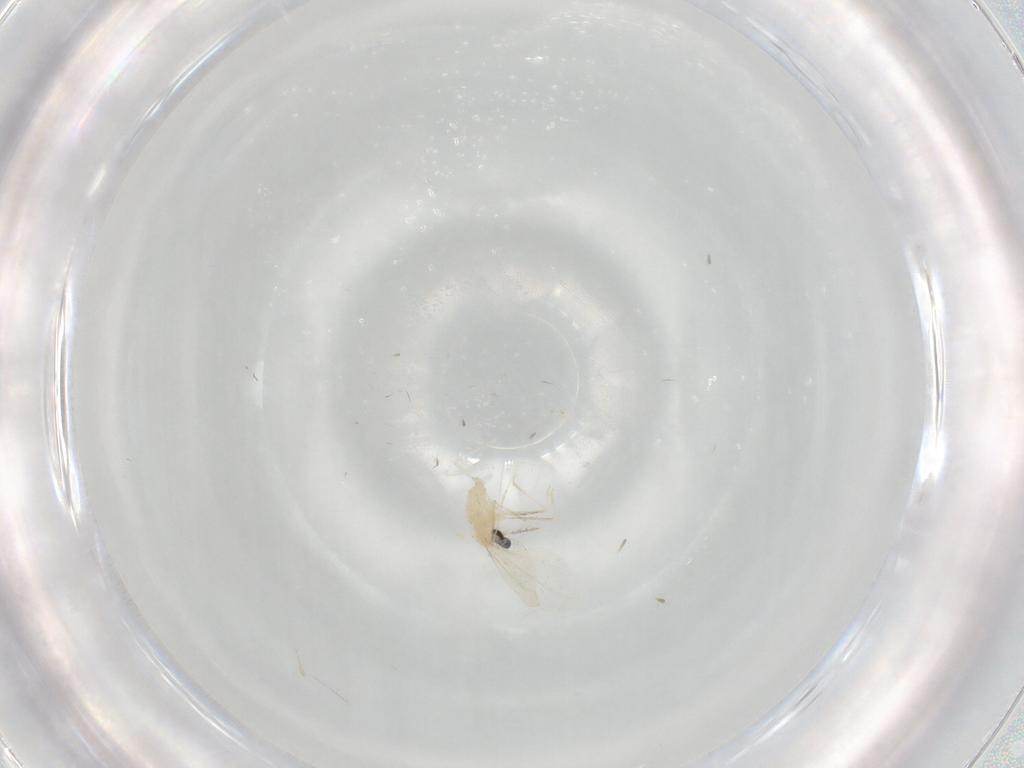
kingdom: Animalia
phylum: Arthropoda
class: Insecta
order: Diptera
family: Cecidomyiidae
